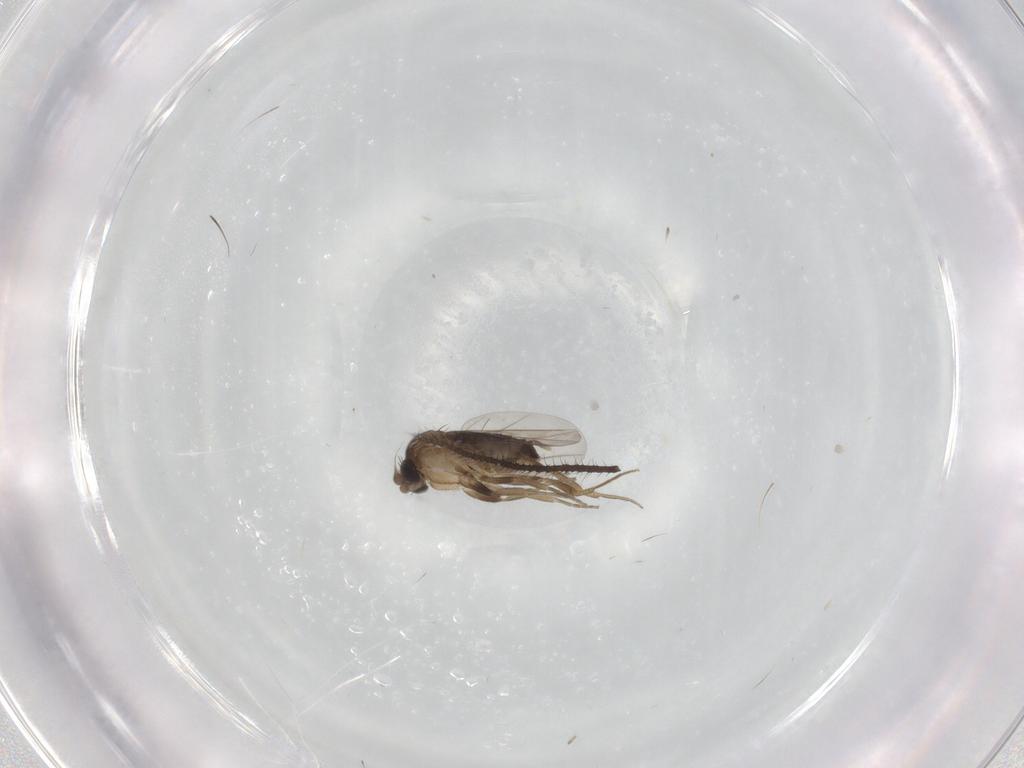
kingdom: Animalia
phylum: Arthropoda
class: Insecta
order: Diptera
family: Phoridae
